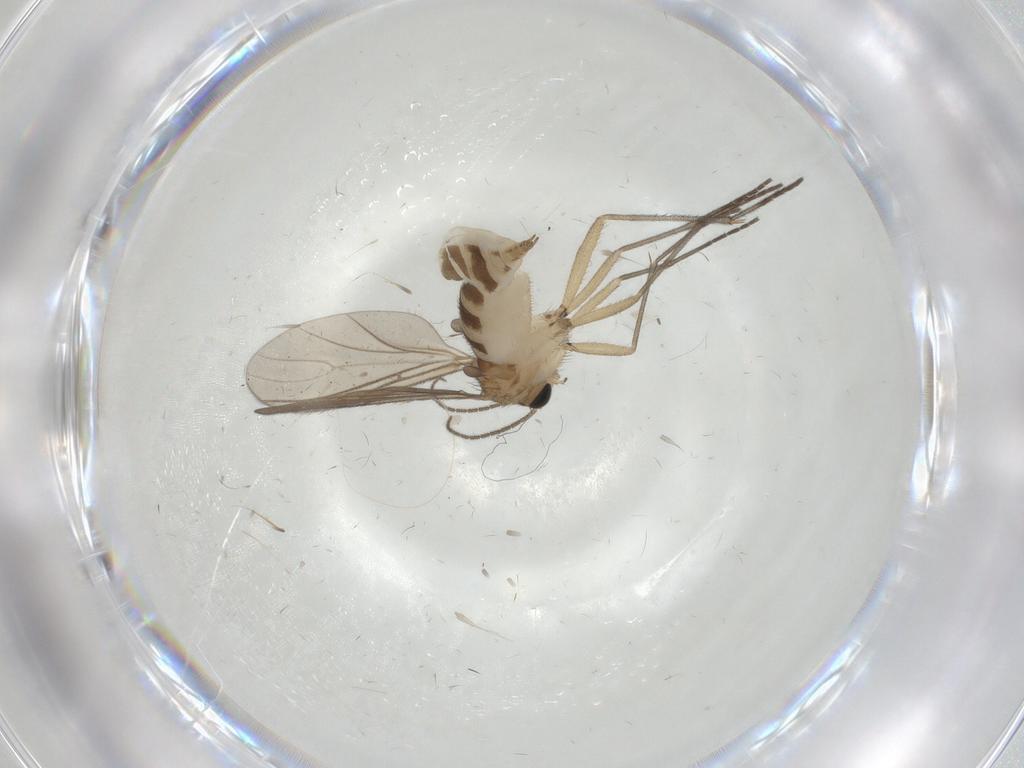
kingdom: Animalia
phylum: Arthropoda
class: Insecta
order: Diptera
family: Sciaridae
